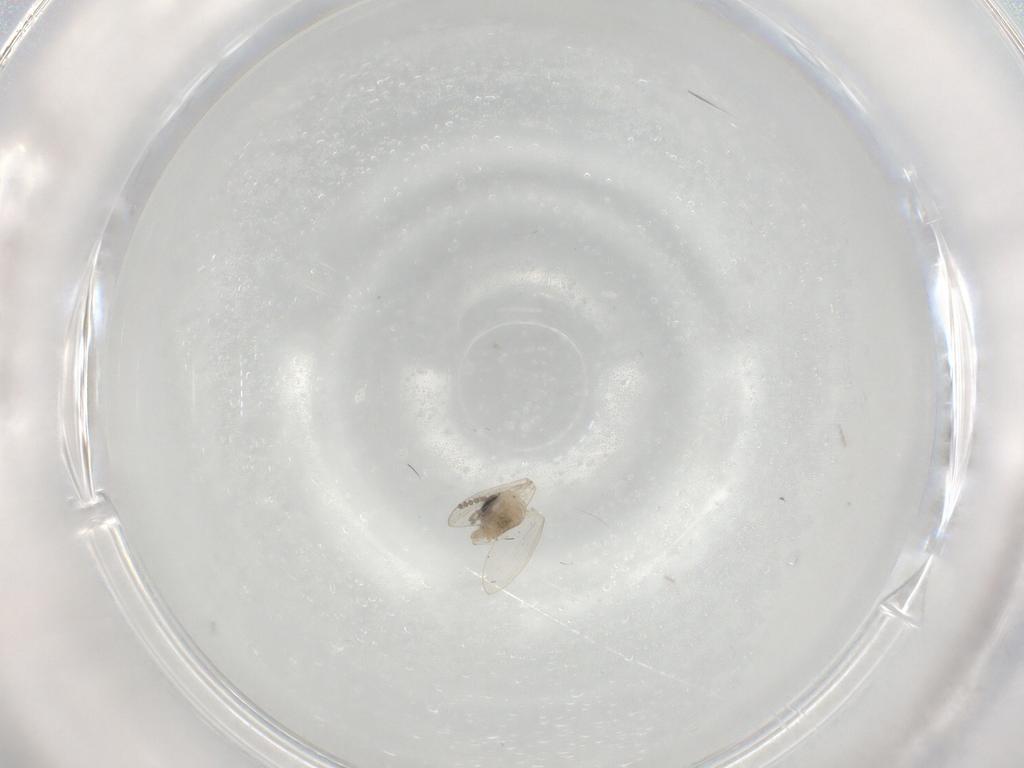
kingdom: Animalia
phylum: Arthropoda
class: Insecta
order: Diptera
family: Psychodidae
